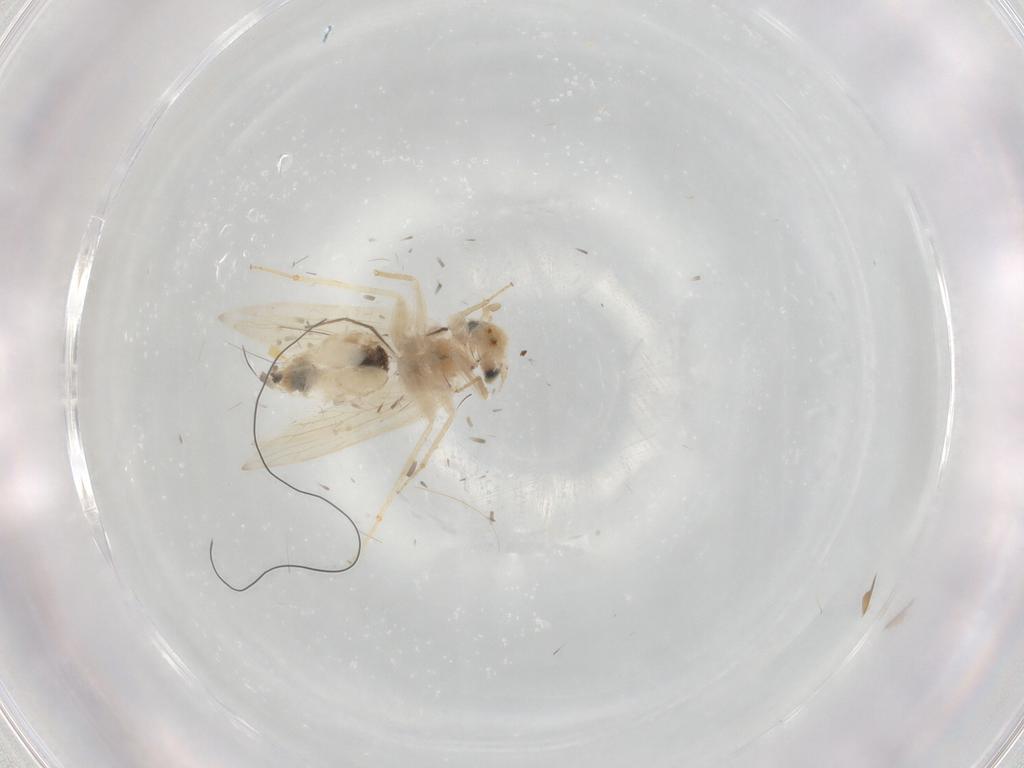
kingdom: Animalia
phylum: Arthropoda
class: Insecta
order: Psocodea
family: Lepidopsocidae
